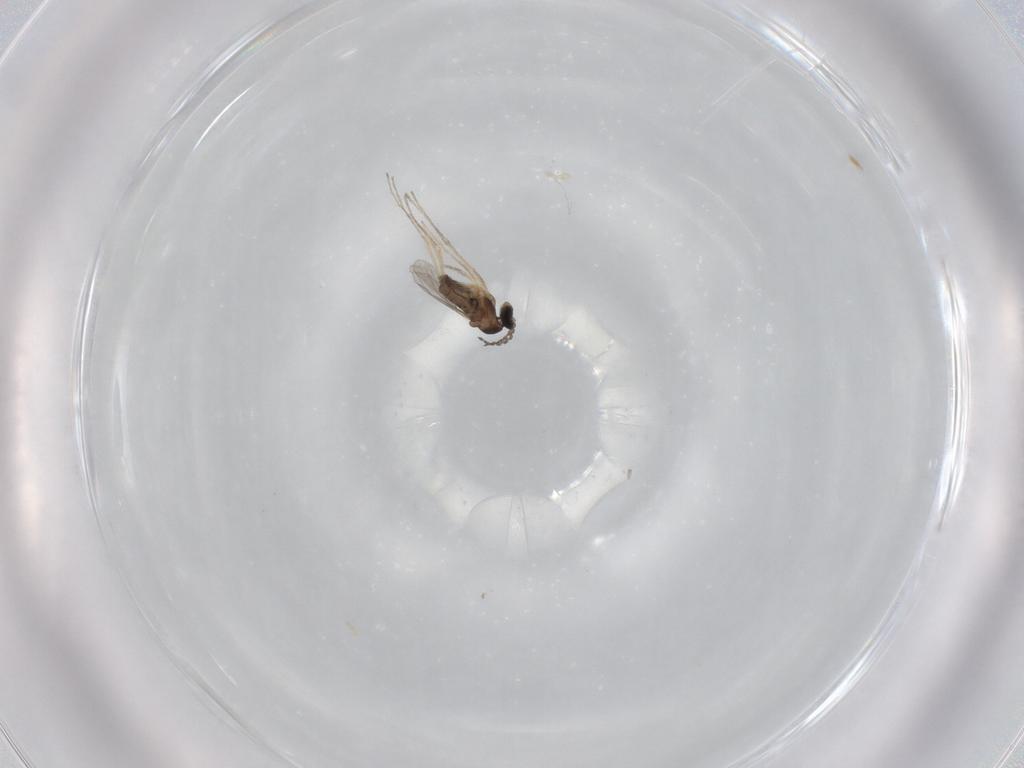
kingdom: Animalia
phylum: Arthropoda
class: Insecta
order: Diptera
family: Cecidomyiidae
